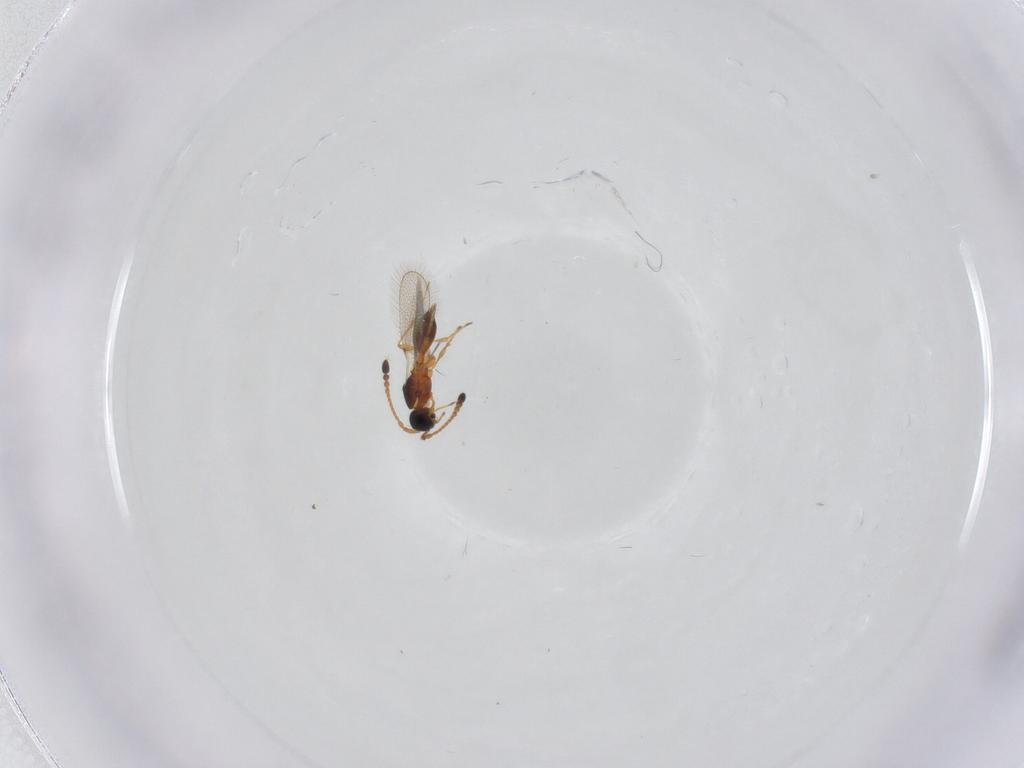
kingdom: Animalia
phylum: Arthropoda
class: Insecta
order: Hymenoptera
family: Diapriidae
